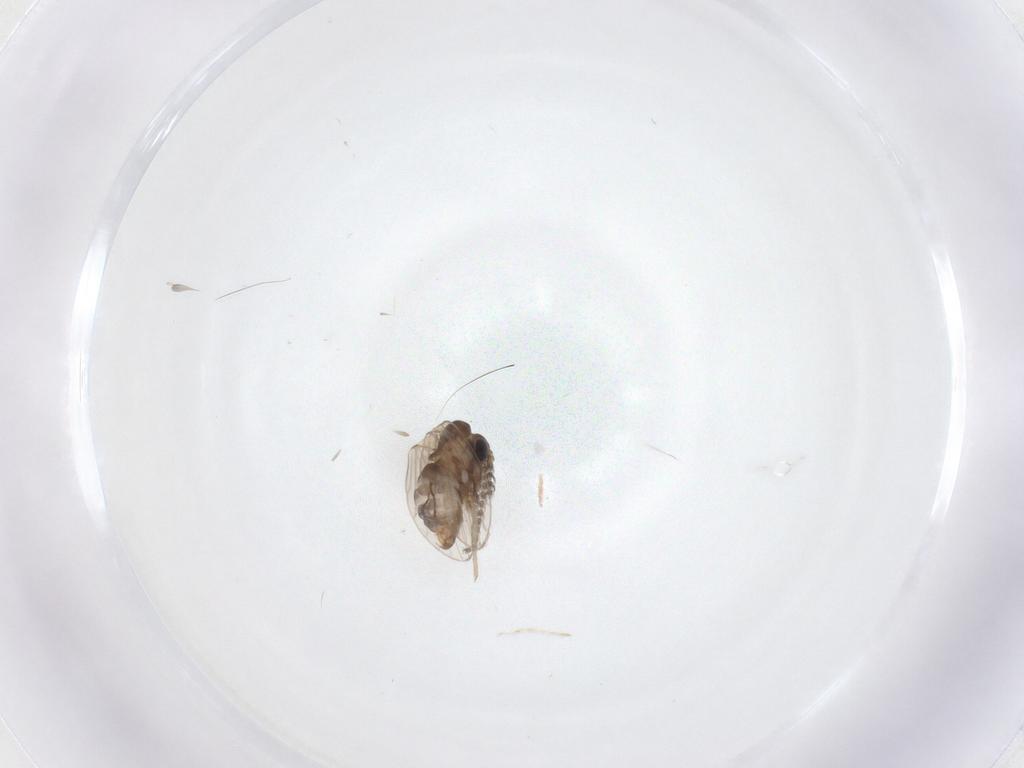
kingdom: Animalia
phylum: Arthropoda
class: Insecta
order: Diptera
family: Psychodidae
